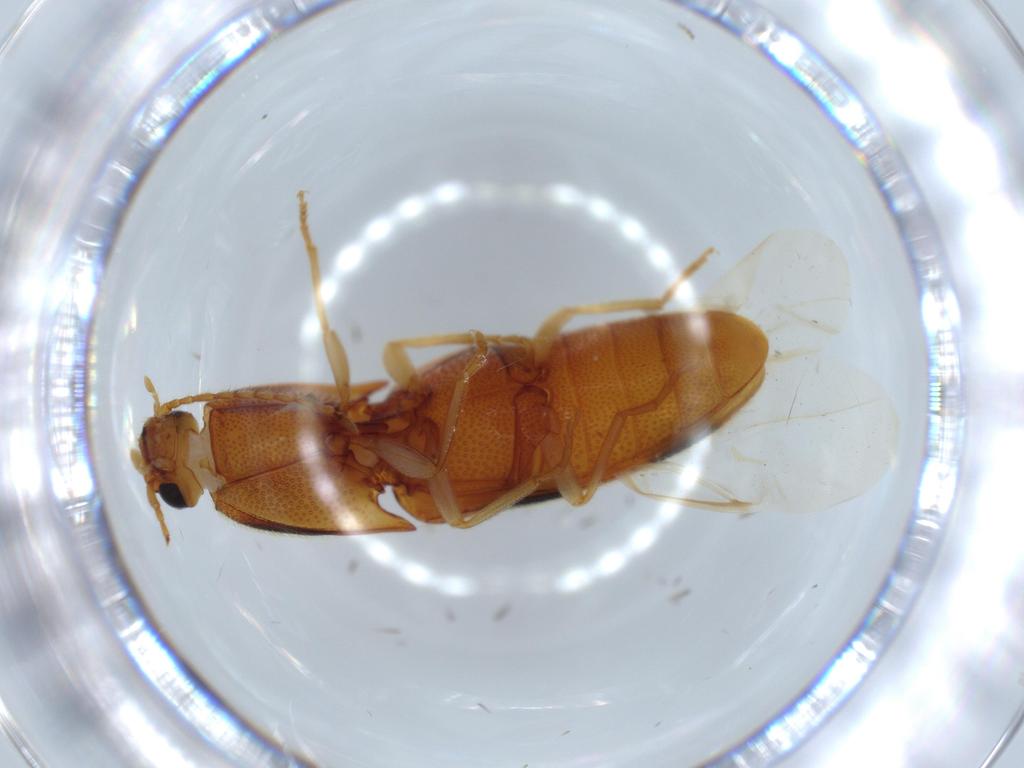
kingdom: Animalia
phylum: Arthropoda
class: Insecta
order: Coleoptera
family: Elateridae
